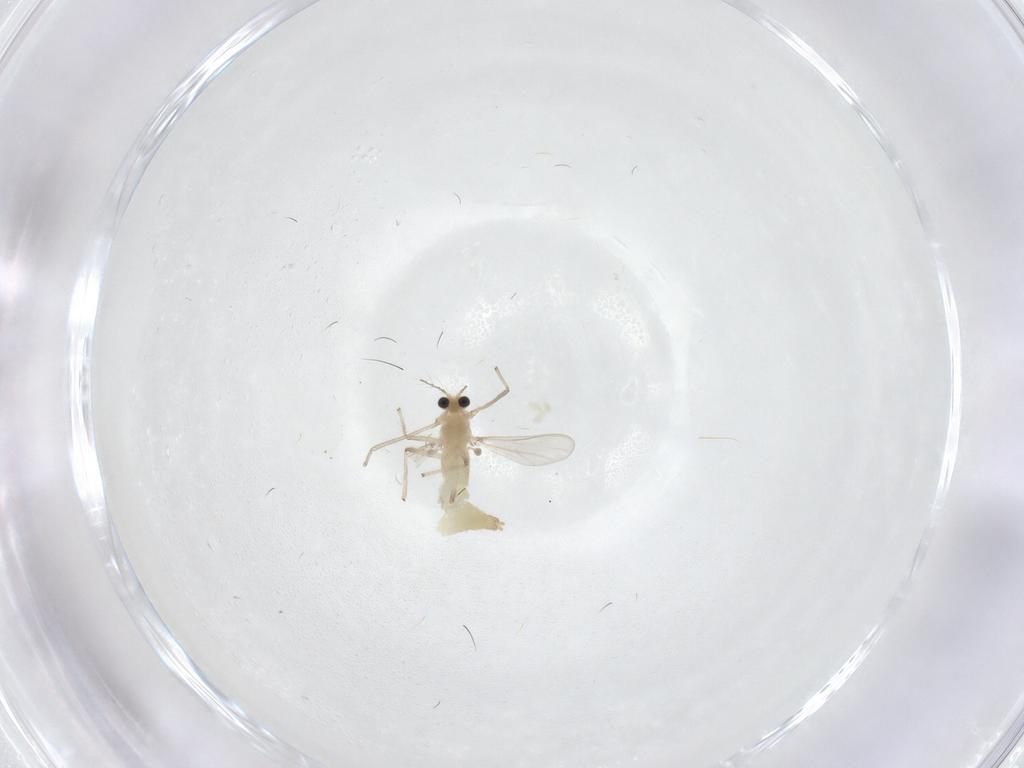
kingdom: Animalia
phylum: Arthropoda
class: Insecta
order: Diptera
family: Chironomidae
